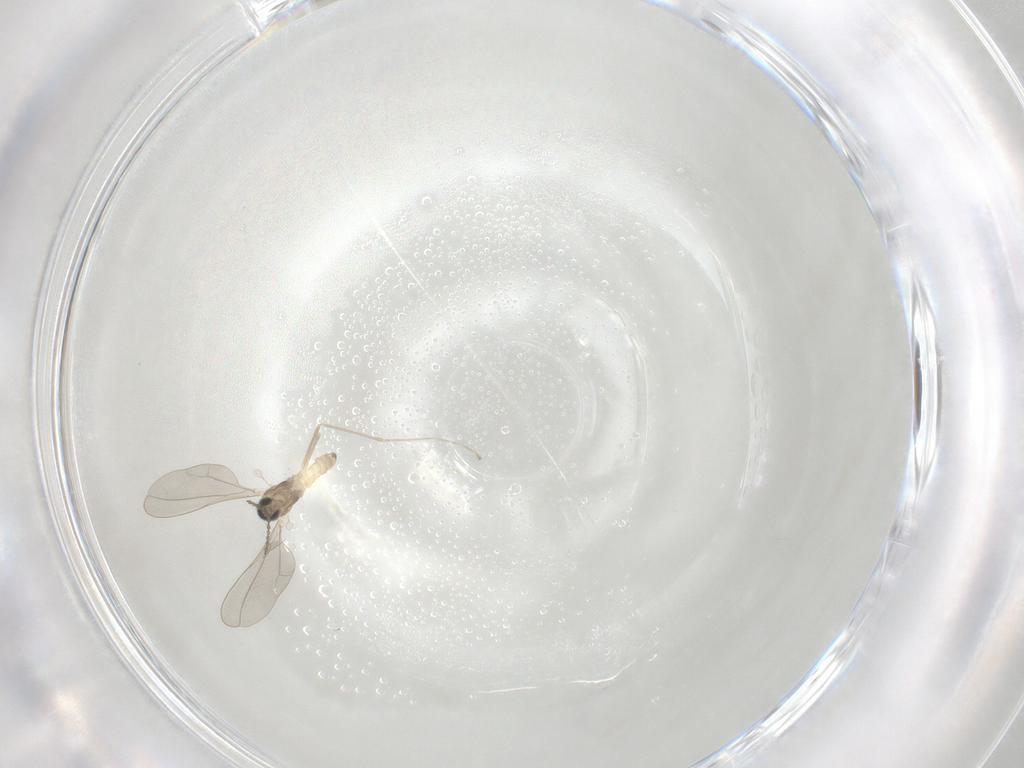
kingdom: Animalia
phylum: Arthropoda
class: Insecta
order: Diptera
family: Cecidomyiidae
